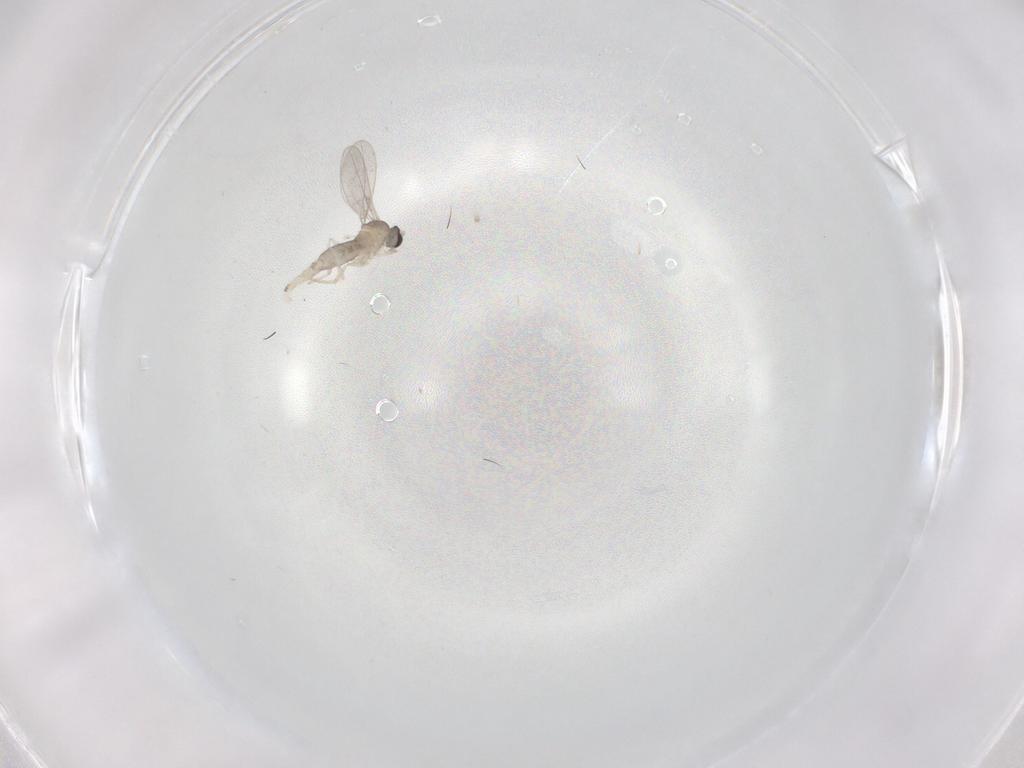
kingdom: Animalia
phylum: Arthropoda
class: Insecta
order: Diptera
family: Cecidomyiidae
